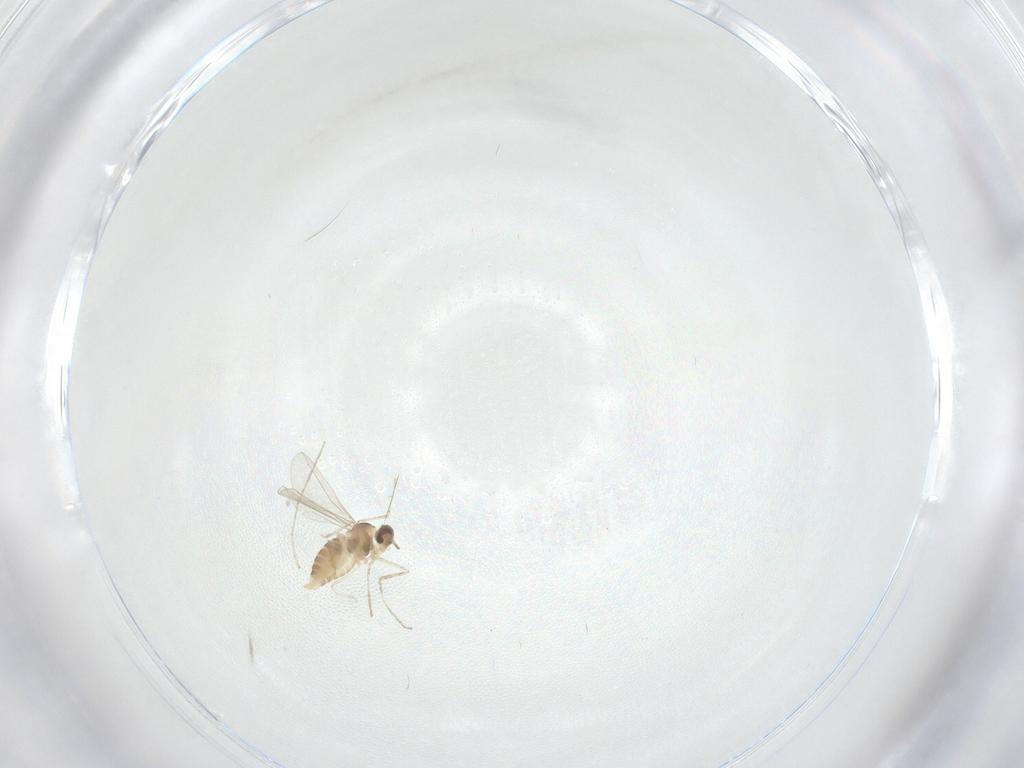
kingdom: Animalia
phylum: Arthropoda
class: Insecta
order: Diptera
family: Cecidomyiidae
